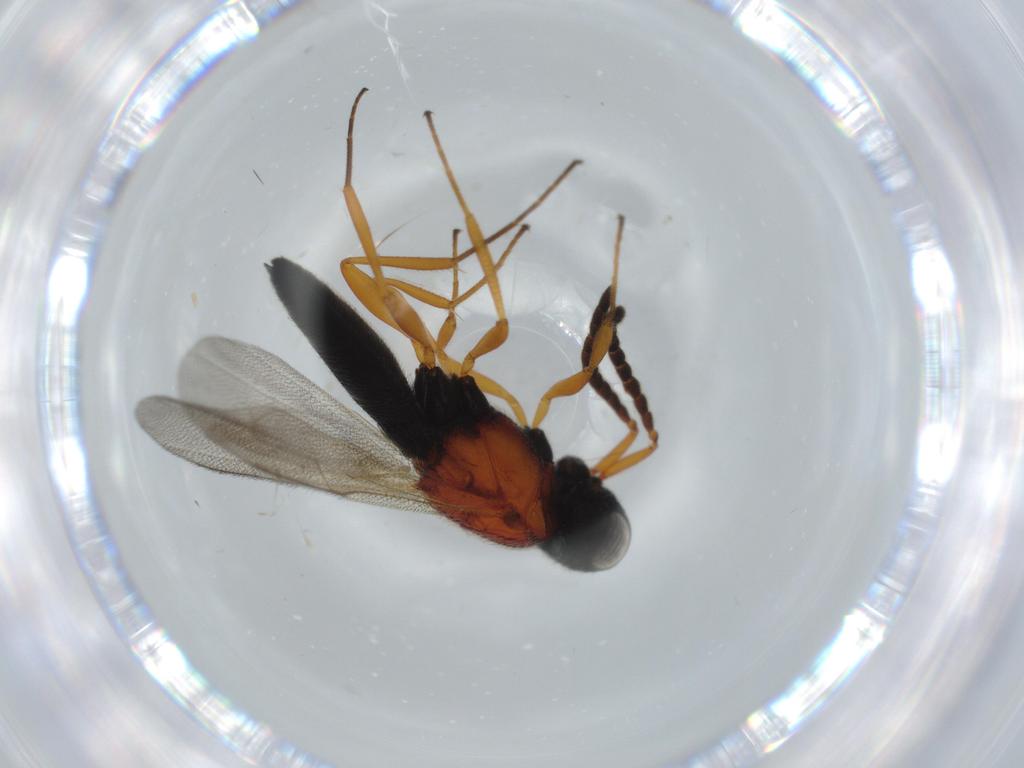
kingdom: Animalia
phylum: Arthropoda
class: Insecta
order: Hymenoptera
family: Scelionidae
